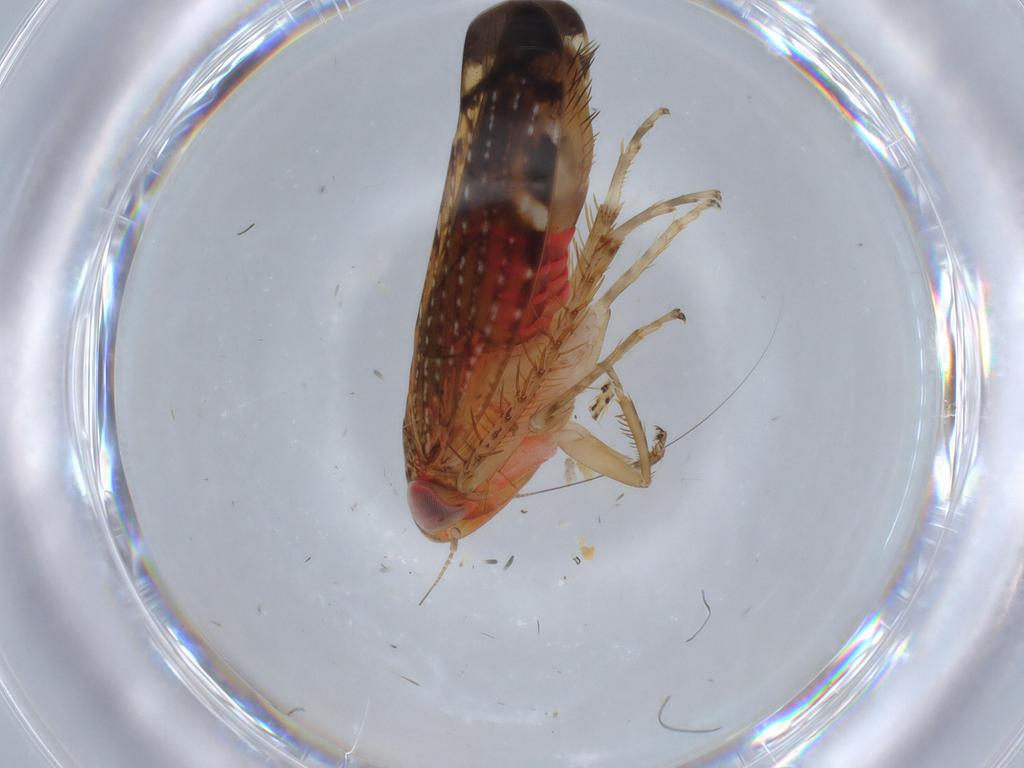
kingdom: Animalia
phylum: Arthropoda
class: Insecta
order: Hemiptera
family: Cicadellidae
